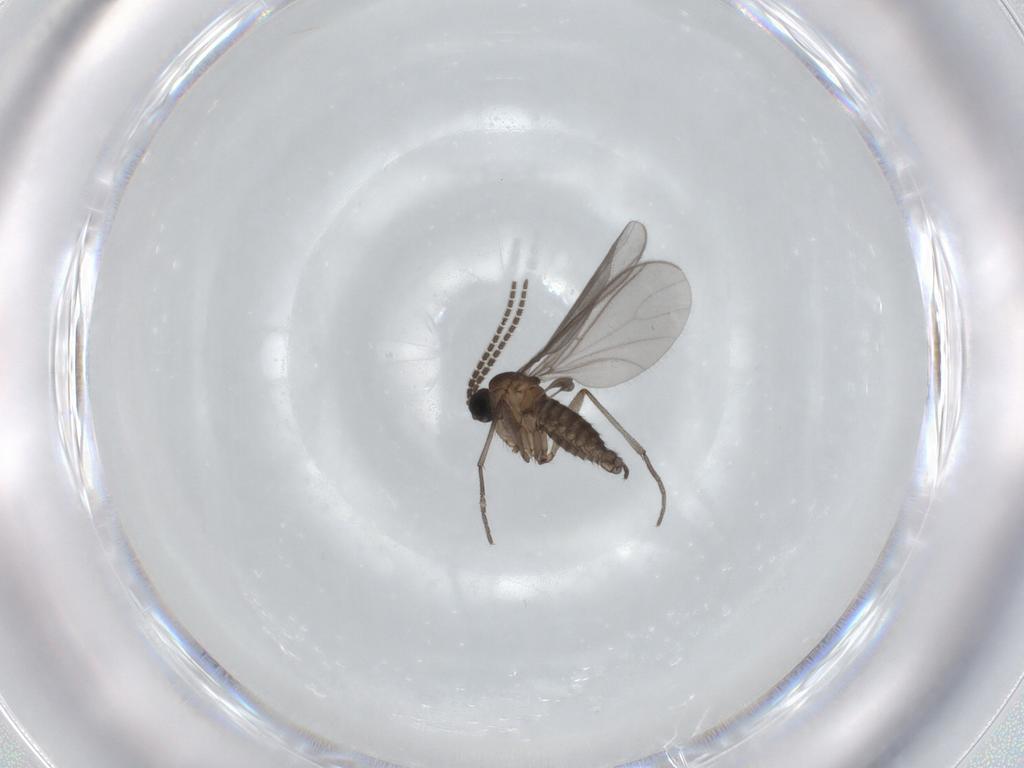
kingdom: Animalia
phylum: Arthropoda
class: Insecta
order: Diptera
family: Sciaridae
